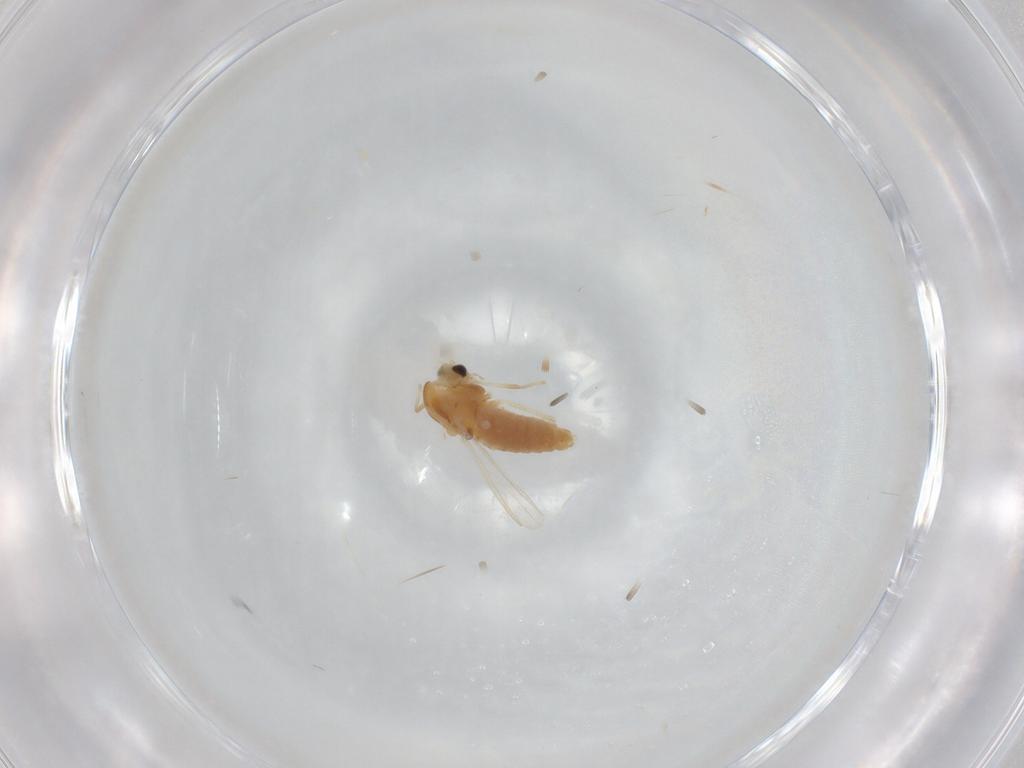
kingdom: Animalia
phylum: Arthropoda
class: Insecta
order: Diptera
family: Chironomidae
